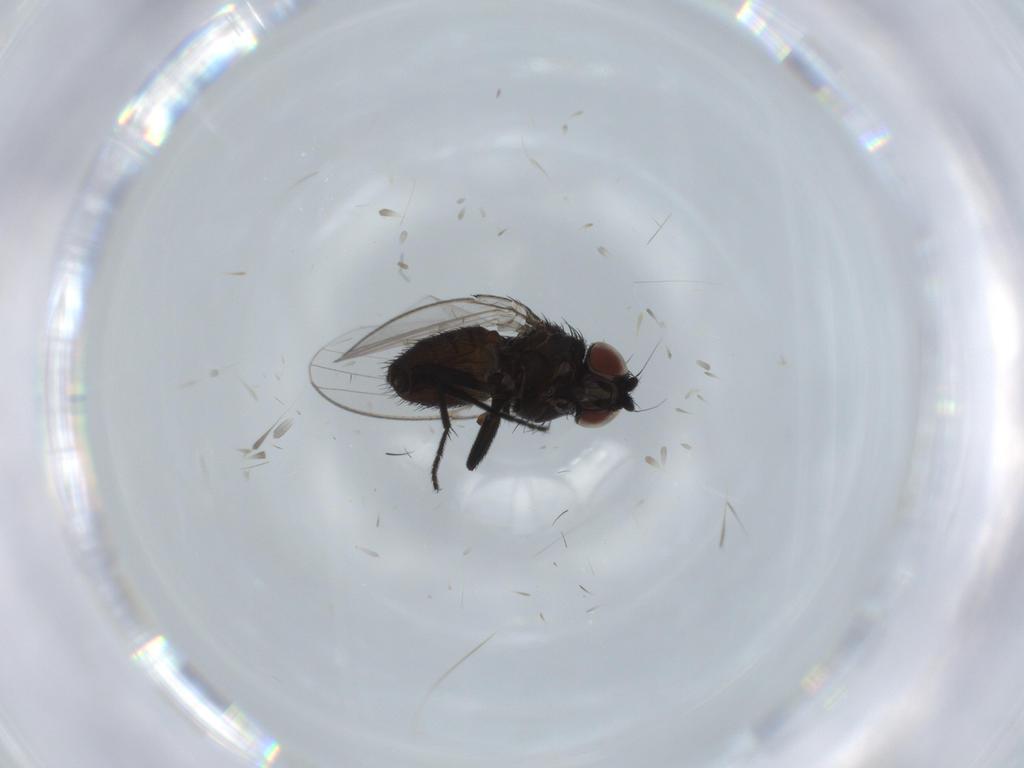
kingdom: Animalia
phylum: Arthropoda
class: Insecta
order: Diptera
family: Milichiidae
